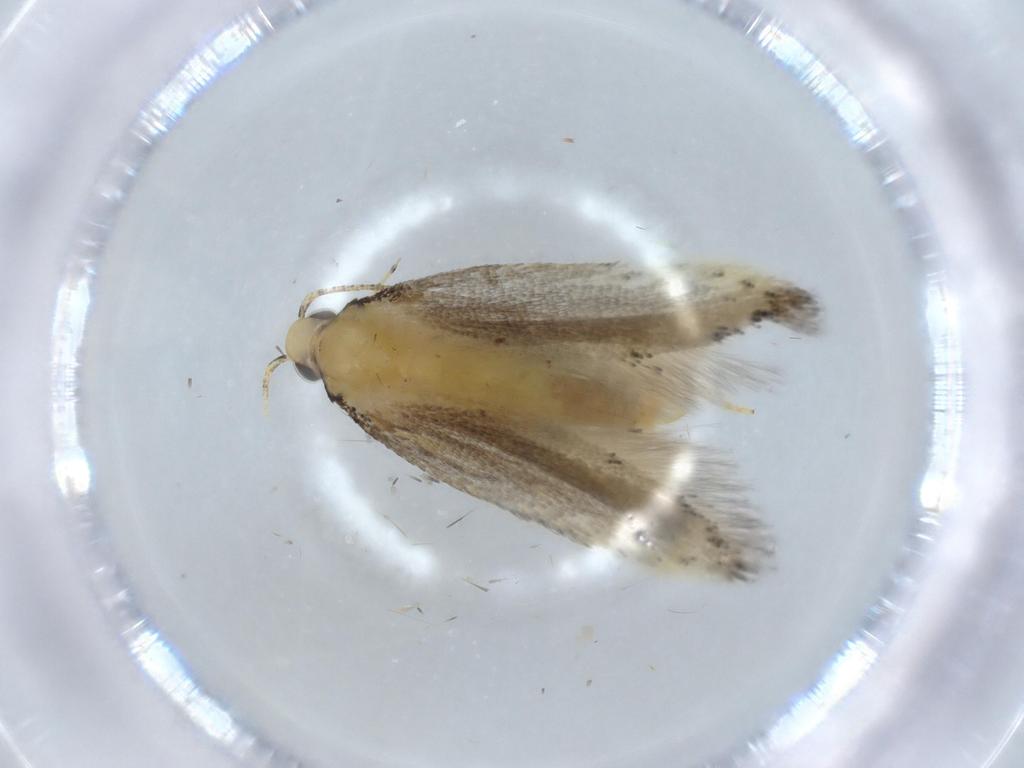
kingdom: Animalia
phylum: Arthropoda
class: Insecta
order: Lepidoptera
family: Autostichidae
